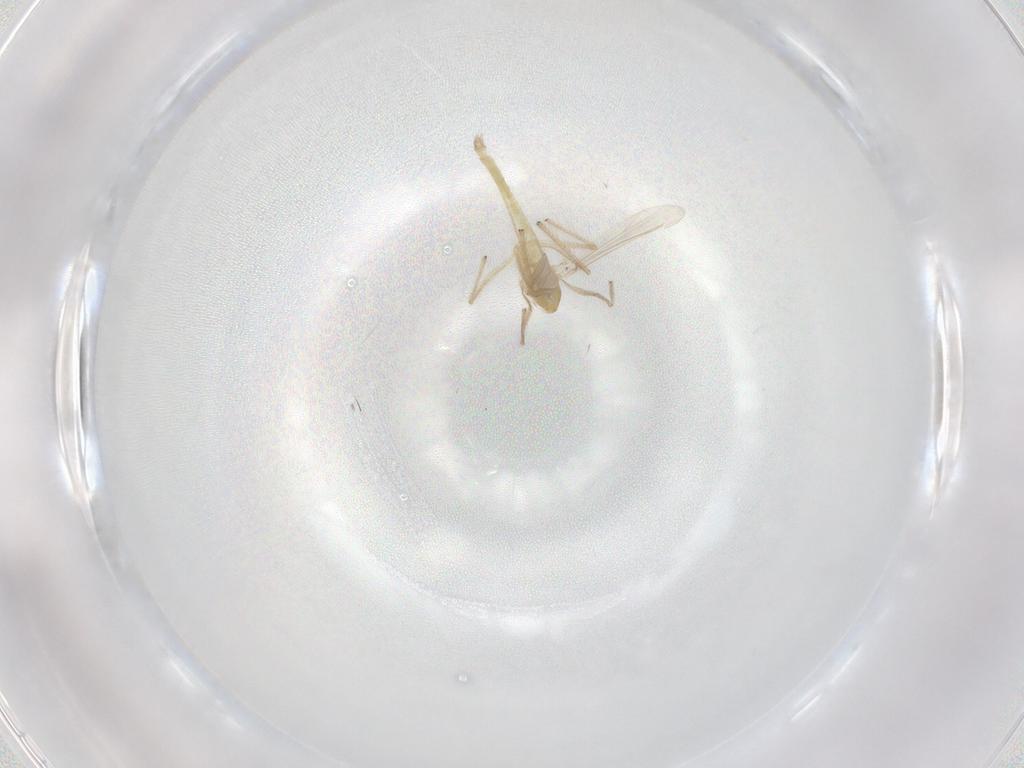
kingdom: Animalia
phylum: Arthropoda
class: Insecta
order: Diptera
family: Chironomidae
